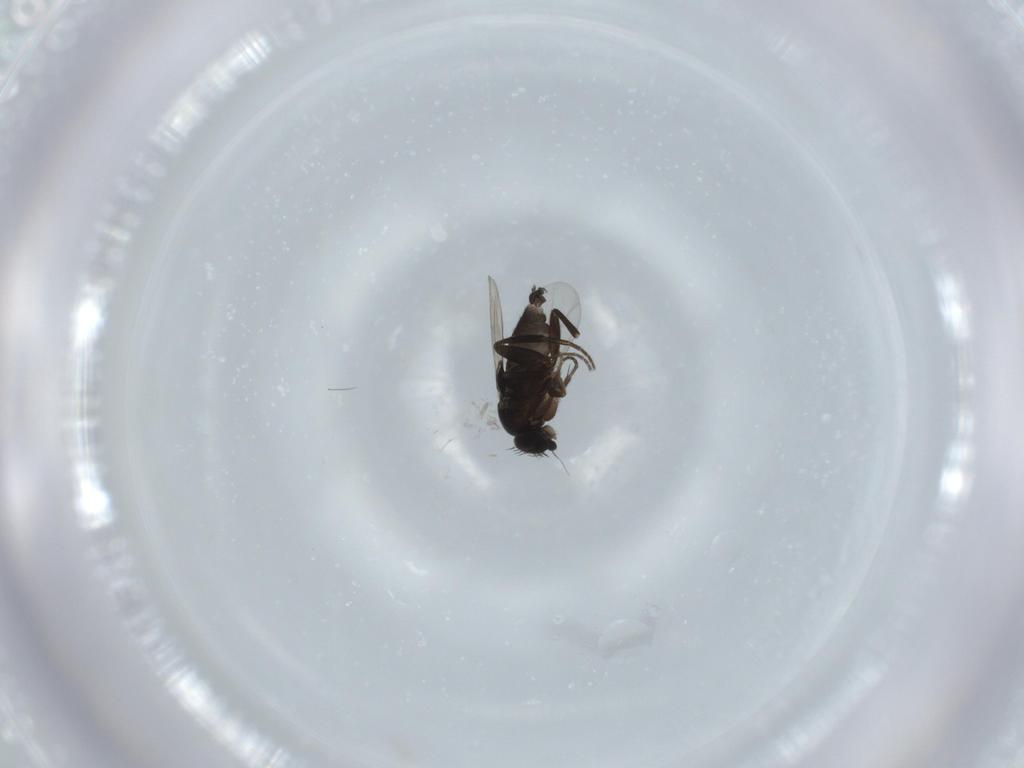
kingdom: Animalia
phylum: Arthropoda
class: Insecta
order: Diptera
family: Phoridae
